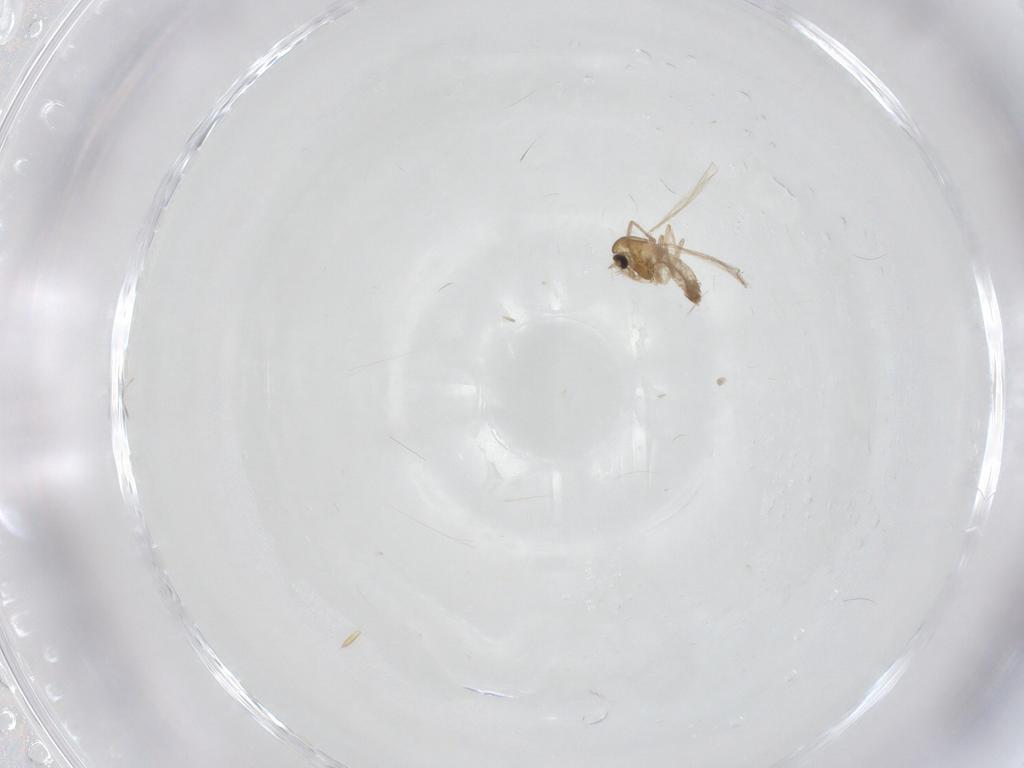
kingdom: Animalia
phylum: Arthropoda
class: Insecta
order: Diptera
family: Chironomidae
